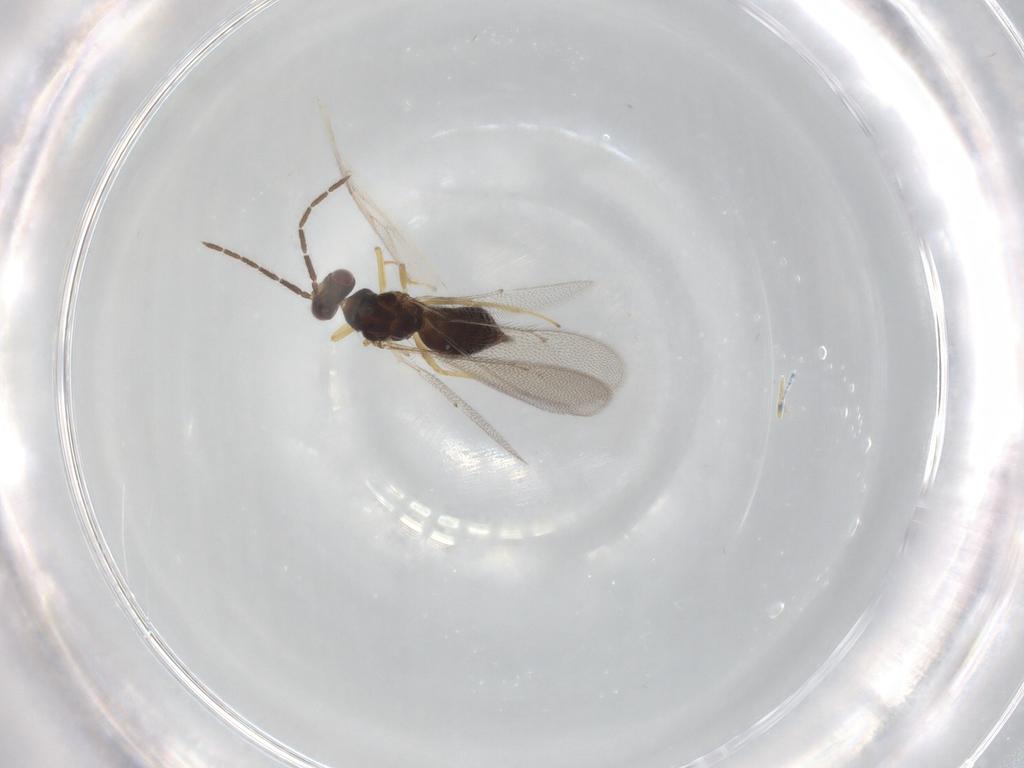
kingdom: Animalia
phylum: Arthropoda
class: Insecta
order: Hymenoptera
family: Eulophidae
